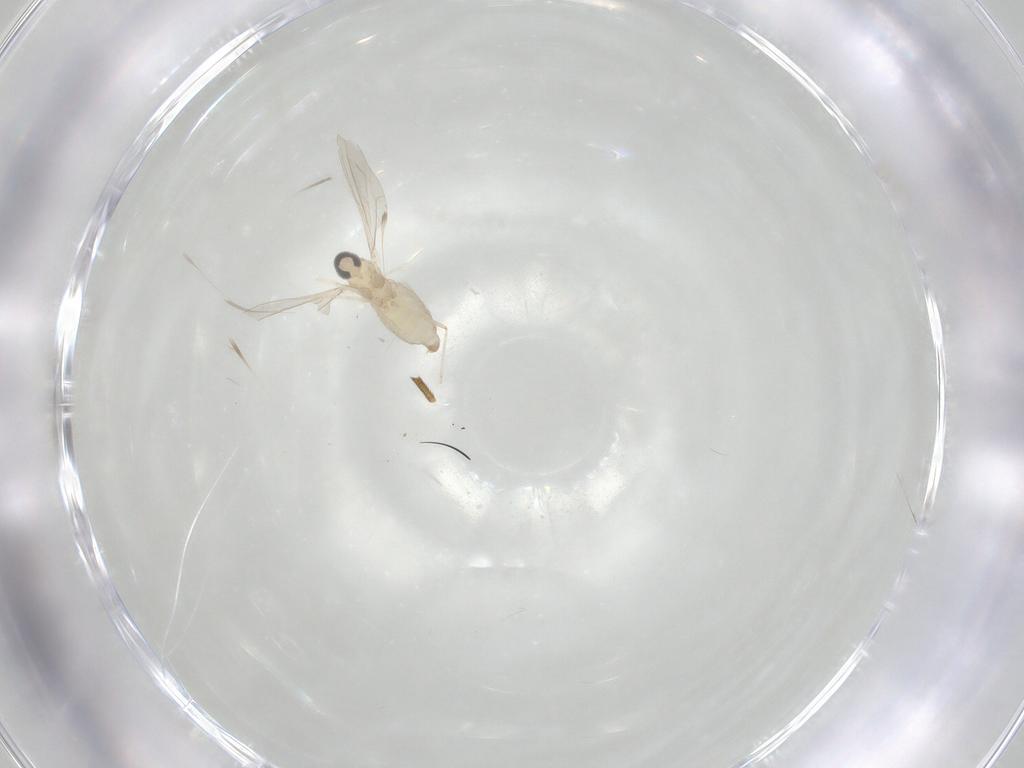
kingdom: Animalia
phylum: Arthropoda
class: Insecta
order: Diptera
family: Cecidomyiidae
